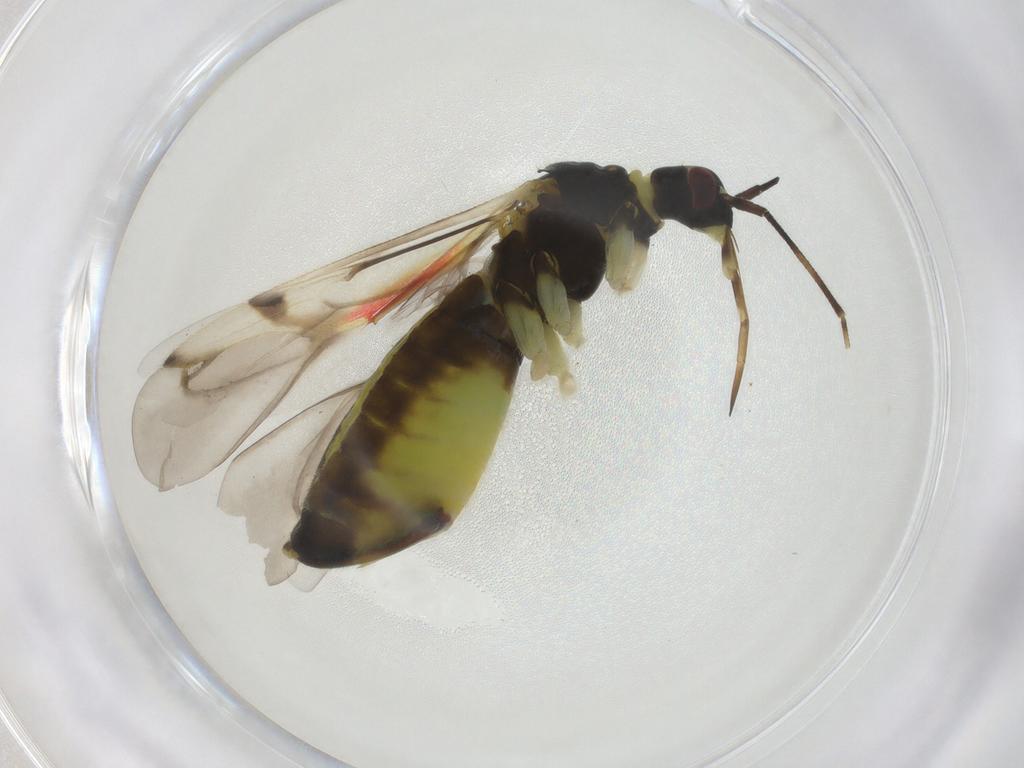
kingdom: Animalia
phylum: Arthropoda
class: Insecta
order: Hemiptera
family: Miridae
